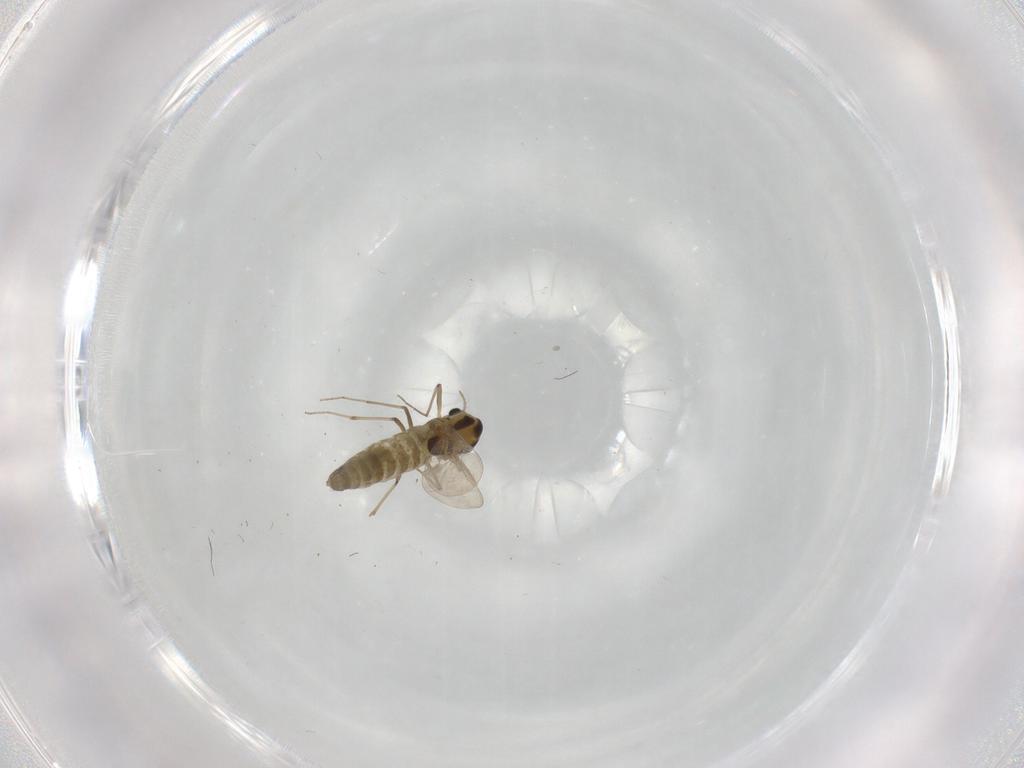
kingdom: Animalia
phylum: Arthropoda
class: Insecta
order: Diptera
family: Chironomidae
